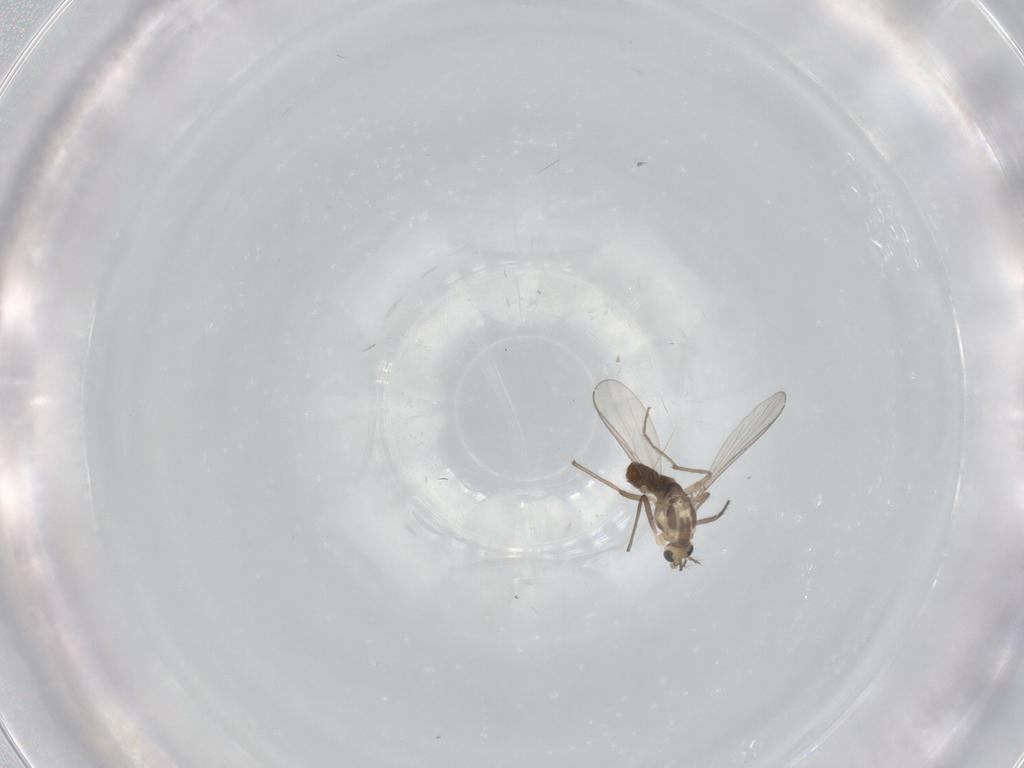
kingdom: Animalia
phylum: Arthropoda
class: Insecta
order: Diptera
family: Chironomidae
